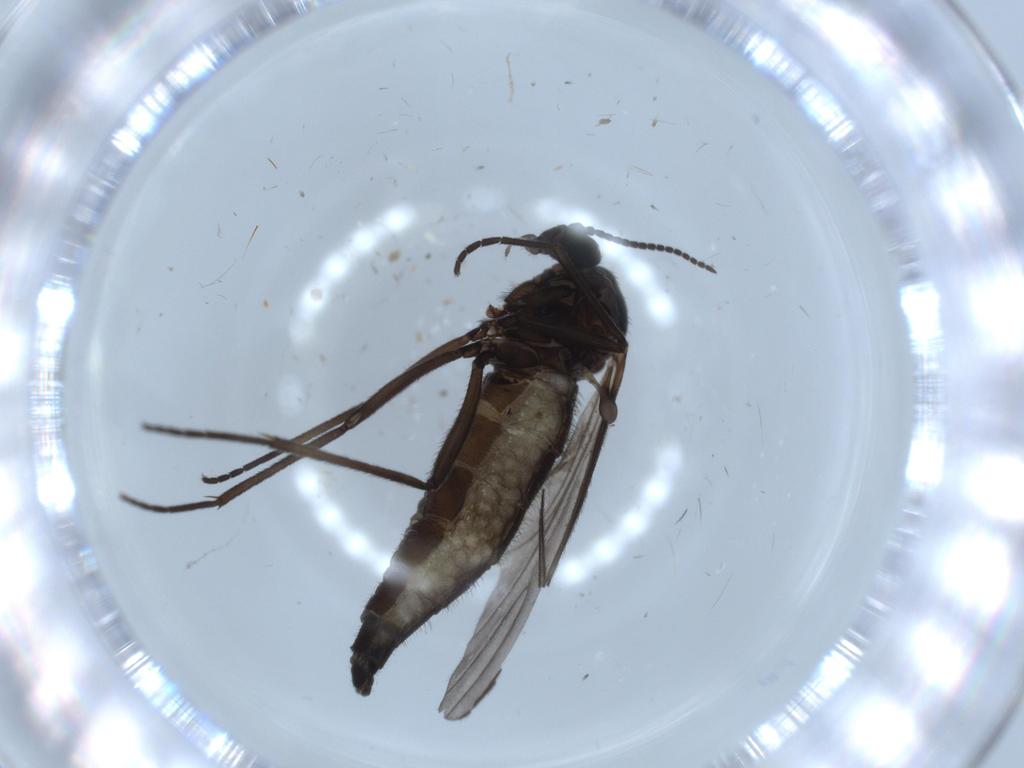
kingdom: Animalia
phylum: Arthropoda
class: Insecta
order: Diptera
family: Sciaridae
